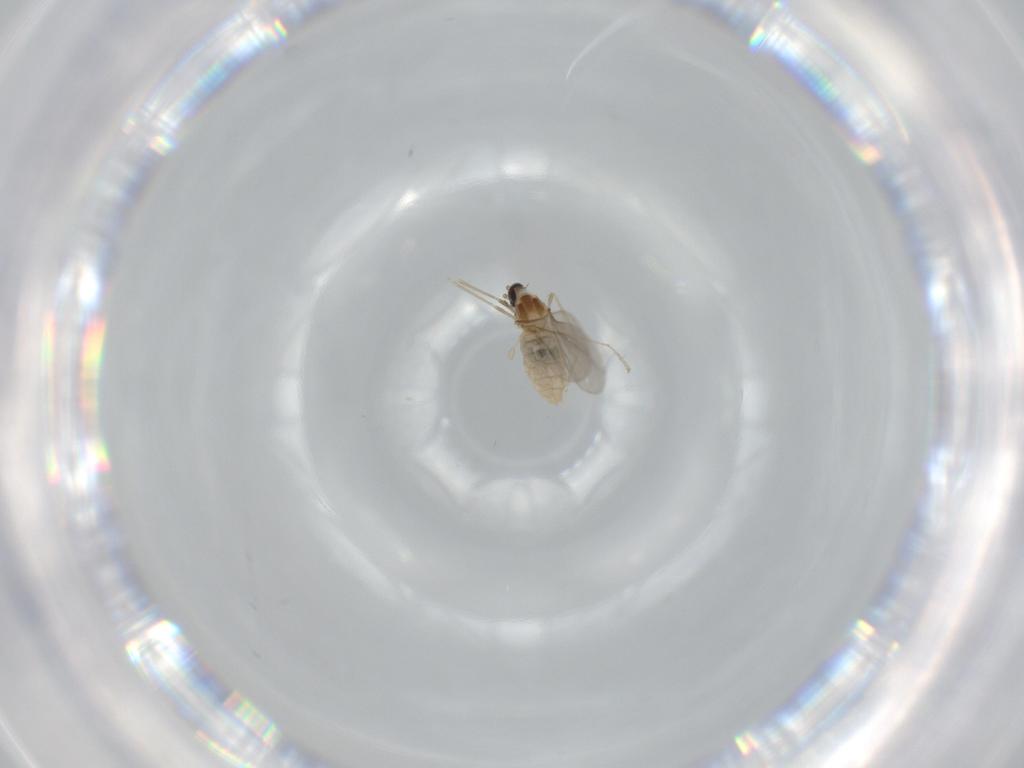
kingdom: Animalia
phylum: Arthropoda
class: Insecta
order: Diptera
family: Cecidomyiidae
